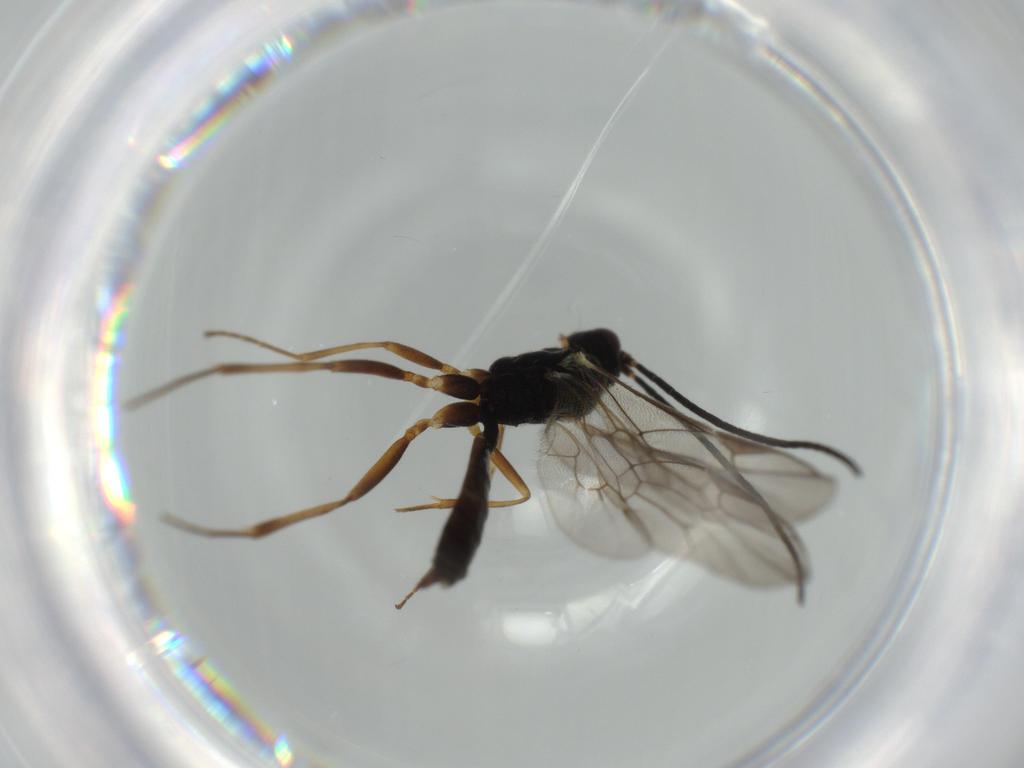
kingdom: Animalia
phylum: Arthropoda
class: Insecta
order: Hymenoptera
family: Ichneumonidae
